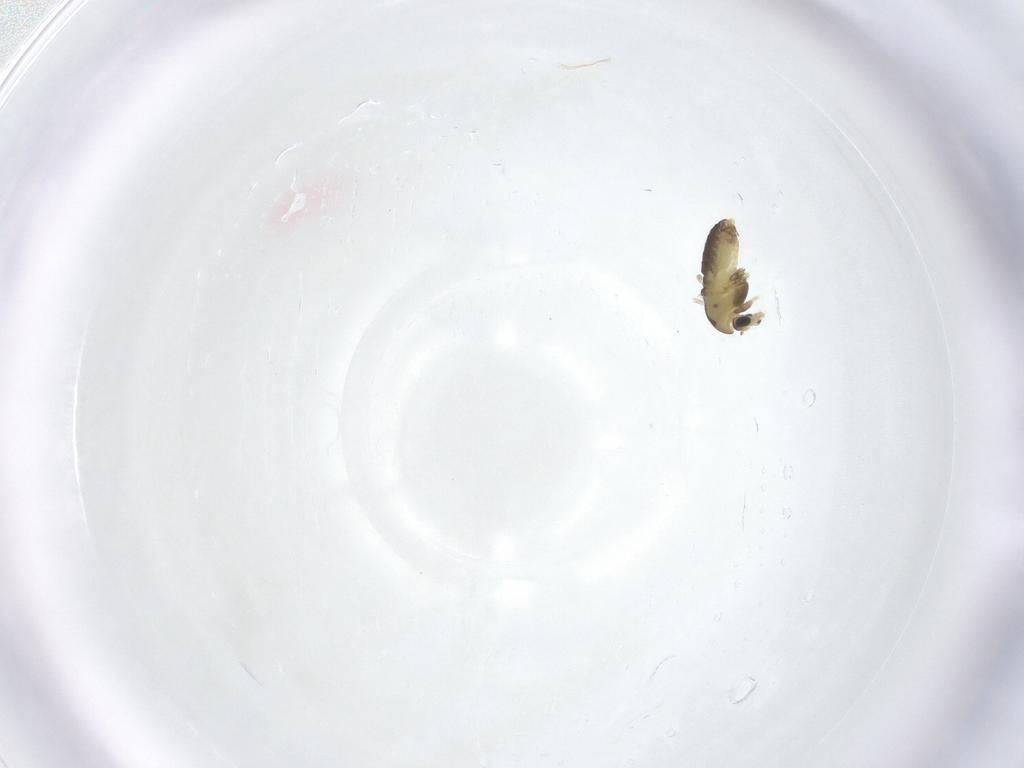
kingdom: Animalia
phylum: Arthropoda
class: Insecta
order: Diptera
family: Chironomidae
